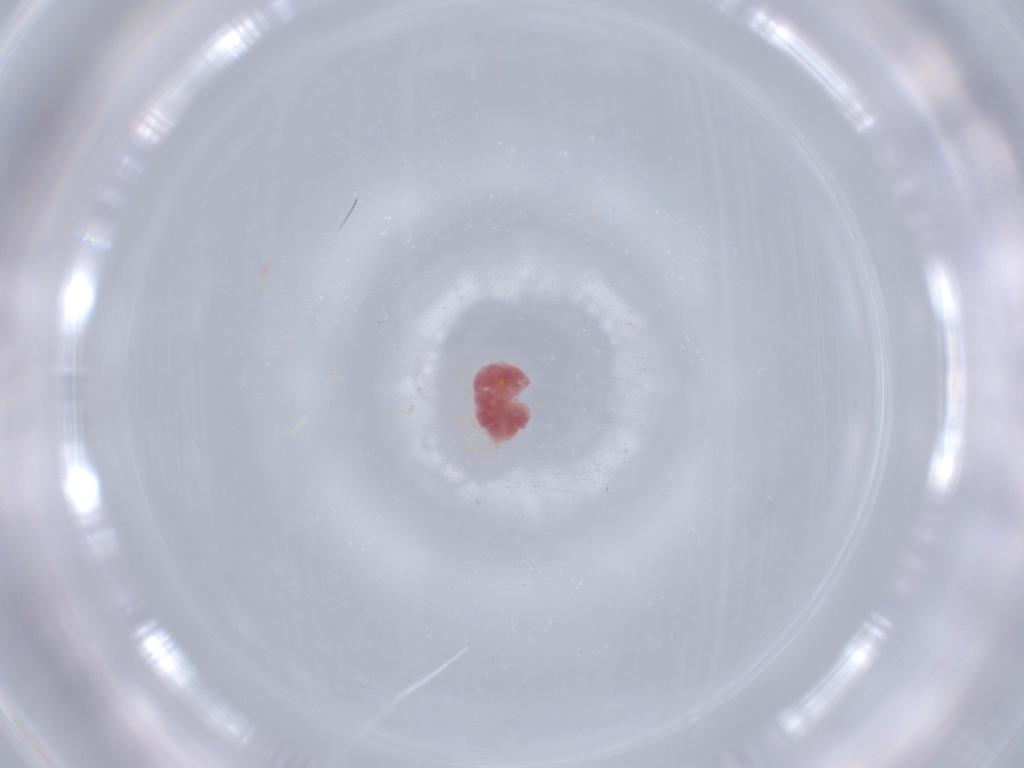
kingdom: Animalia
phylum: Arthropoda
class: Arachnida
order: Trombidiformes
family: Erythraeidae
